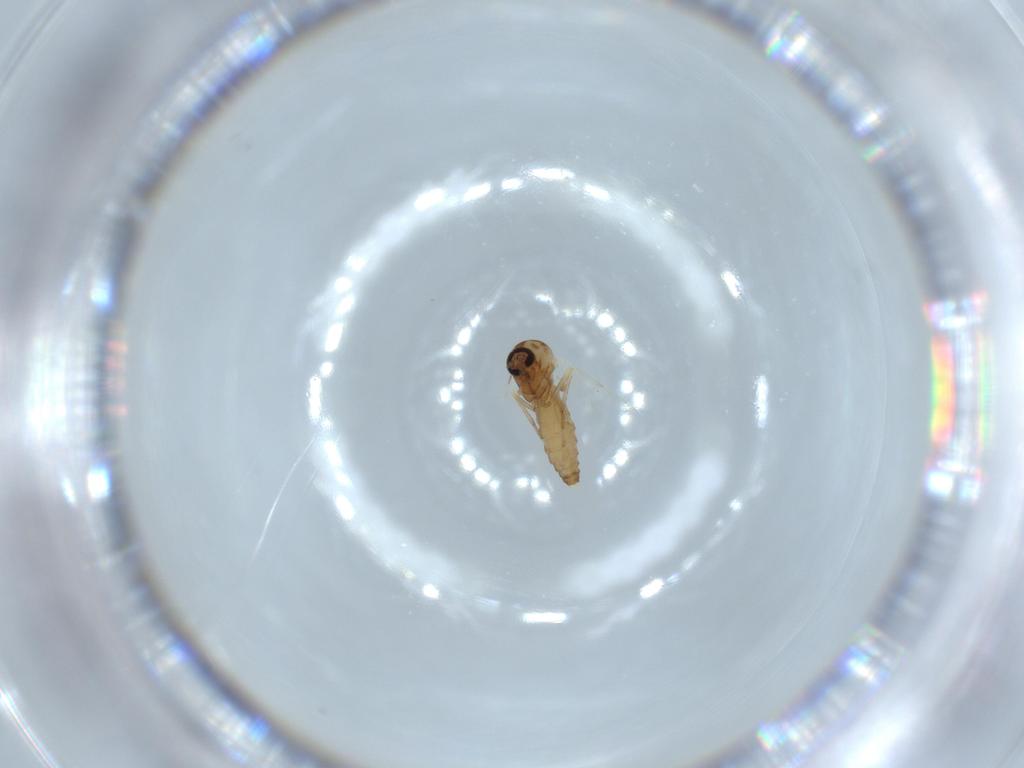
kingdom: Animalia
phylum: Arthropoda
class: Insecta
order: Diptera
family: Ceratopogonidae
